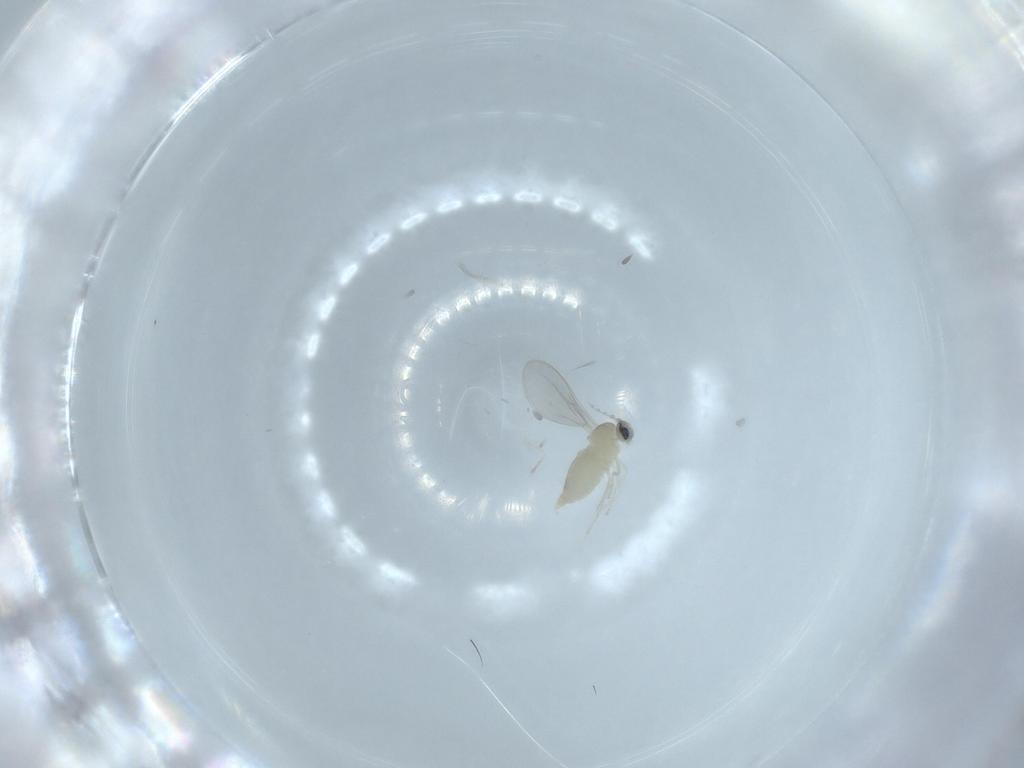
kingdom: Animalia
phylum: Arthropoda
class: Insecta
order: Diptera
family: Cecidomyiidae
